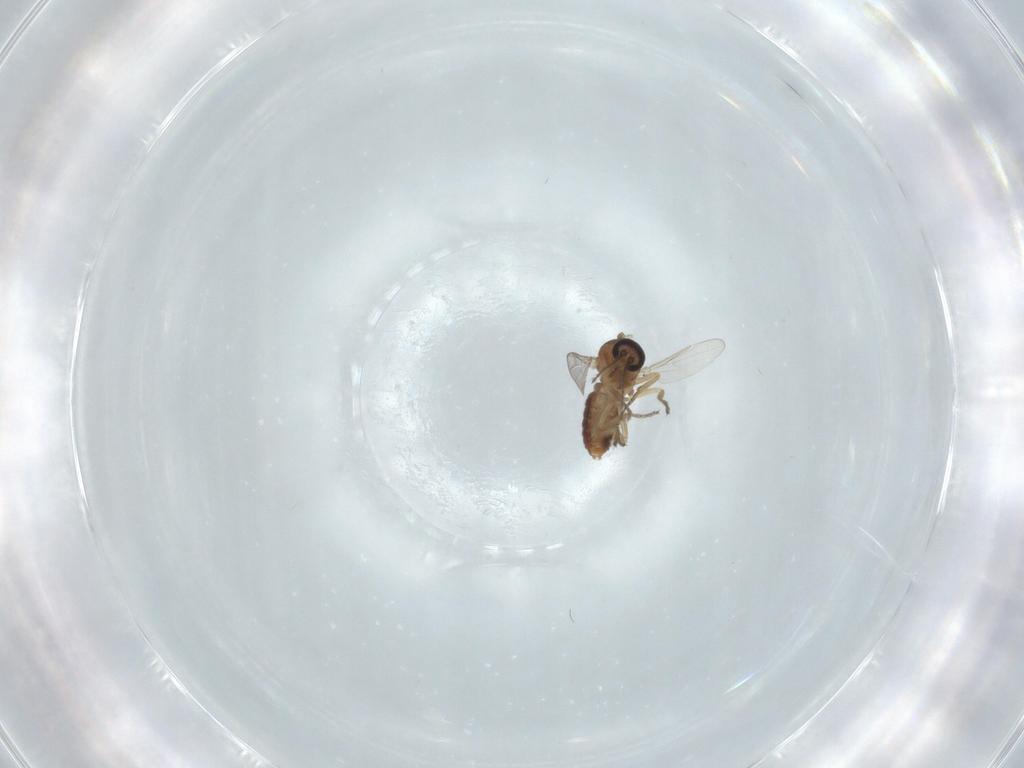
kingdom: Animalia
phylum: Arthropoda
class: Insecta
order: Diptera
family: Ceratopogonidae
